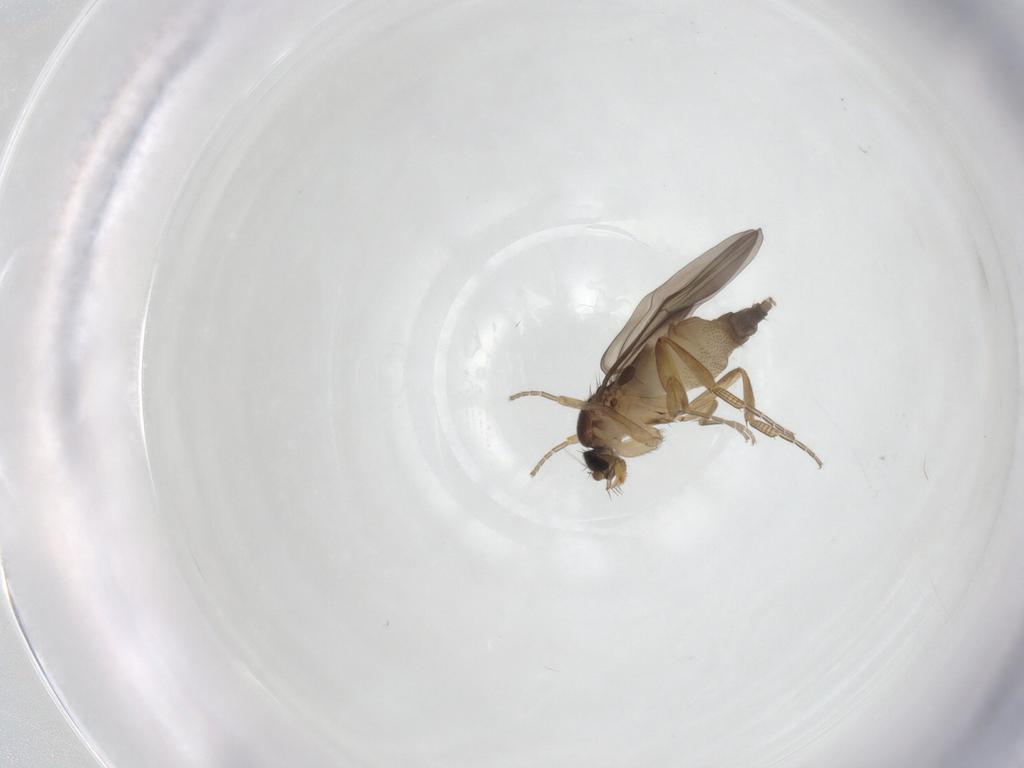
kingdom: Animalia
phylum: Arthropoda
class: Insecta
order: Diptera
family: Phoridae
